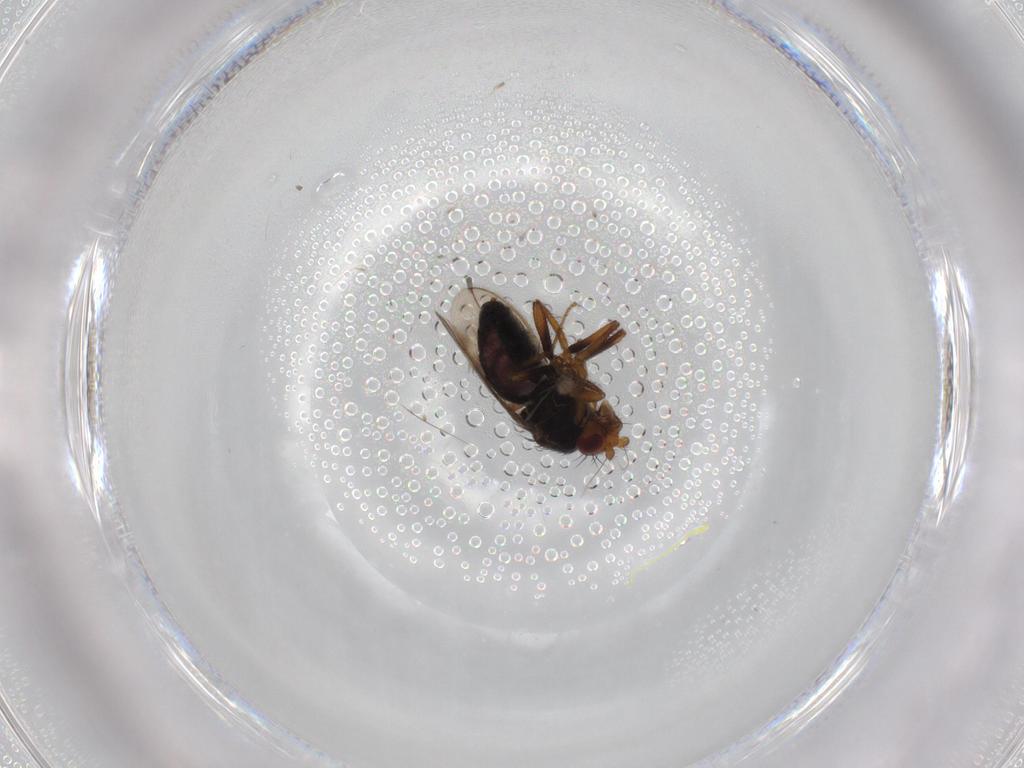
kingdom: Animalia
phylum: Arthropoda
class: Insecta
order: Diptera
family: Sphaeroceridae
